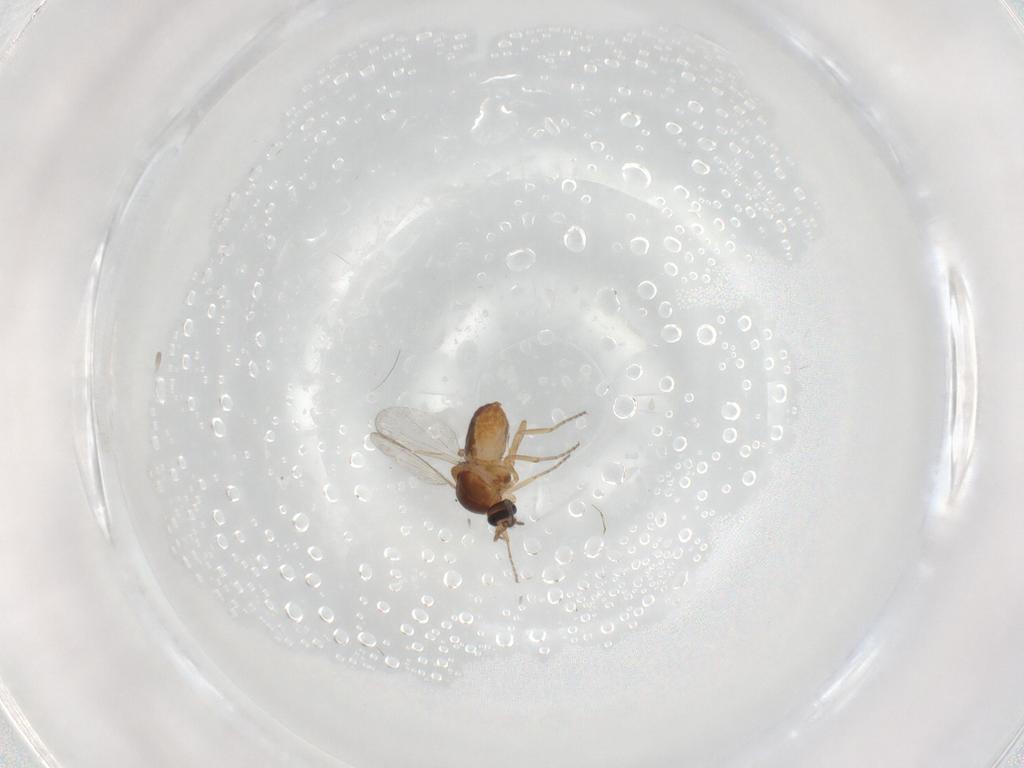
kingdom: Animalia
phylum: Arthropoda
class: Insecta
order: Diptera
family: Ceratopogonidae
